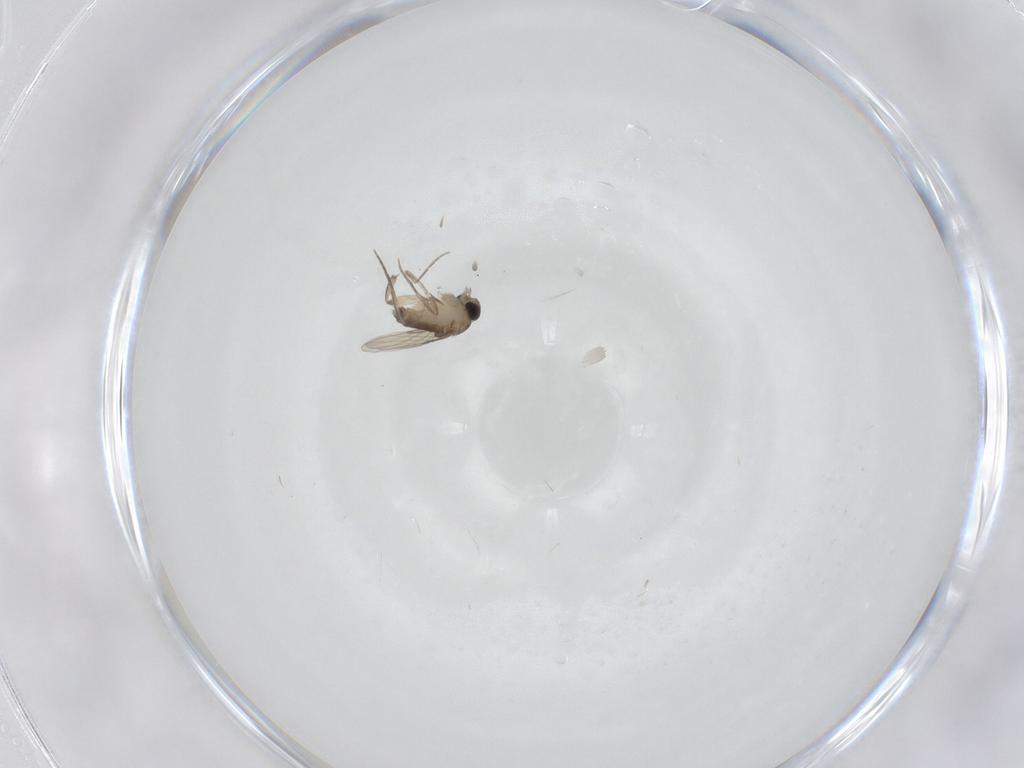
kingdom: Animalia
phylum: Arthropoda
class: Insecta
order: Diptera
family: Phoridae
